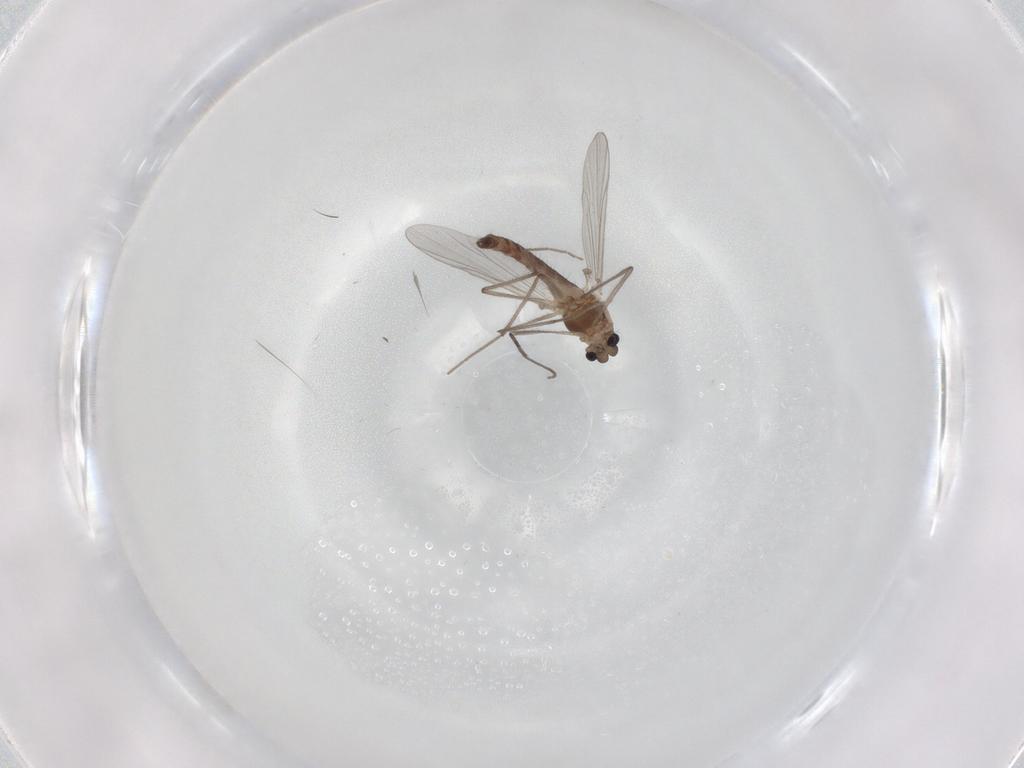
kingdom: Animalia
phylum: Arthropoda
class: Insecta
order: Diptera
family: Chironomidae
